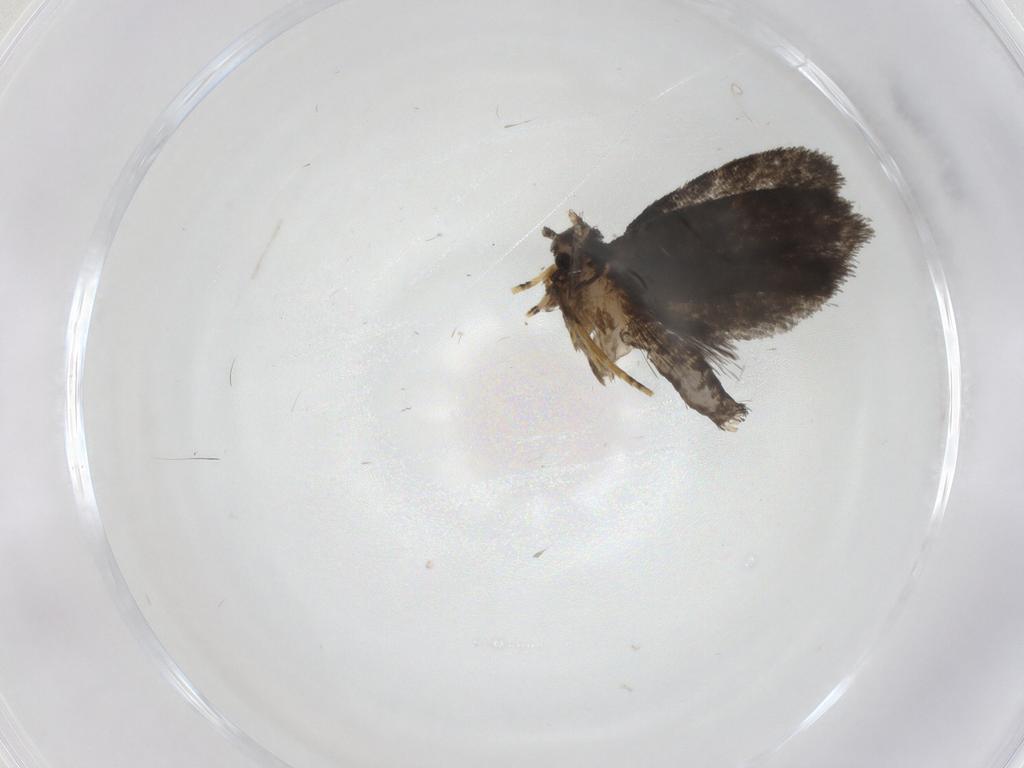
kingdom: Animalia
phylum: Arthropoda
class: Insecta
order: Lepidoptera
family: Psychidae
